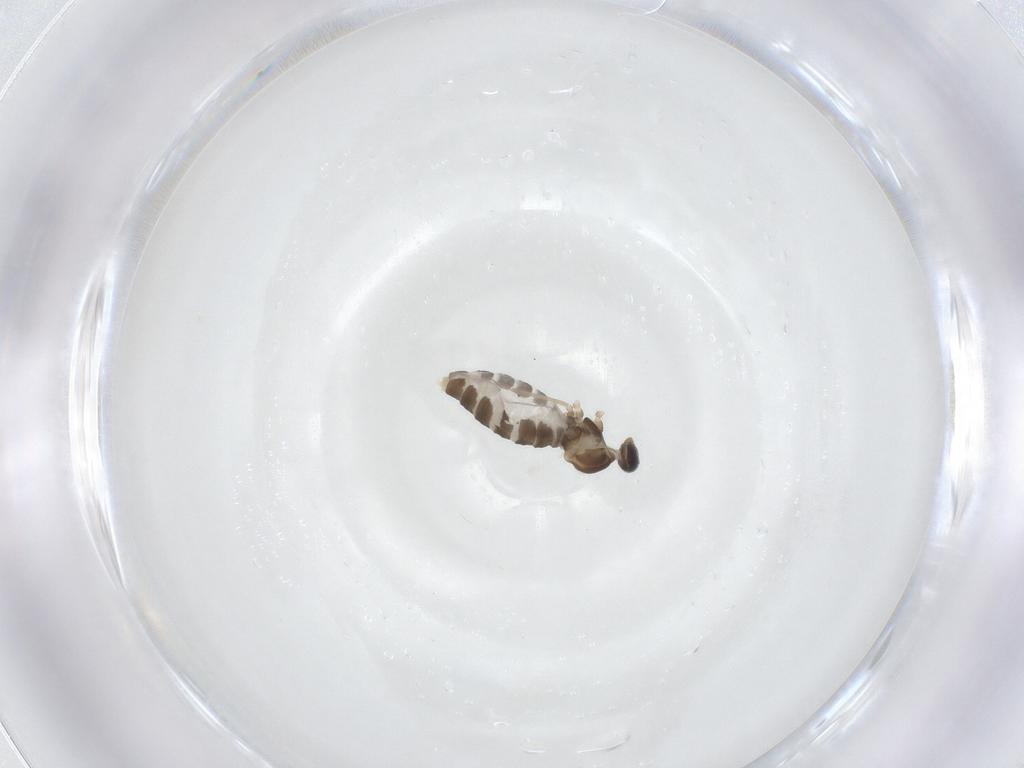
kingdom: Animalia
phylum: Arthropoda
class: Insecta
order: Diptera
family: Cecidomyiidae
